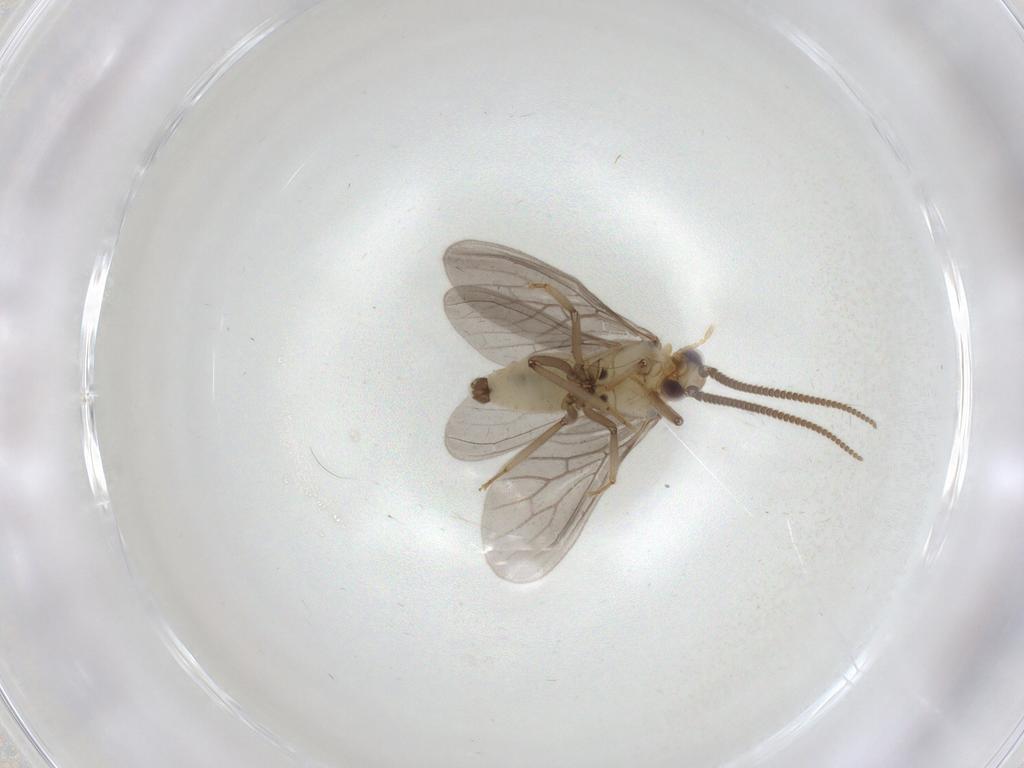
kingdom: Animalia
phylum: Arthropoda
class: Insecta
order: Neuroptera
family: Coniopterygidae
